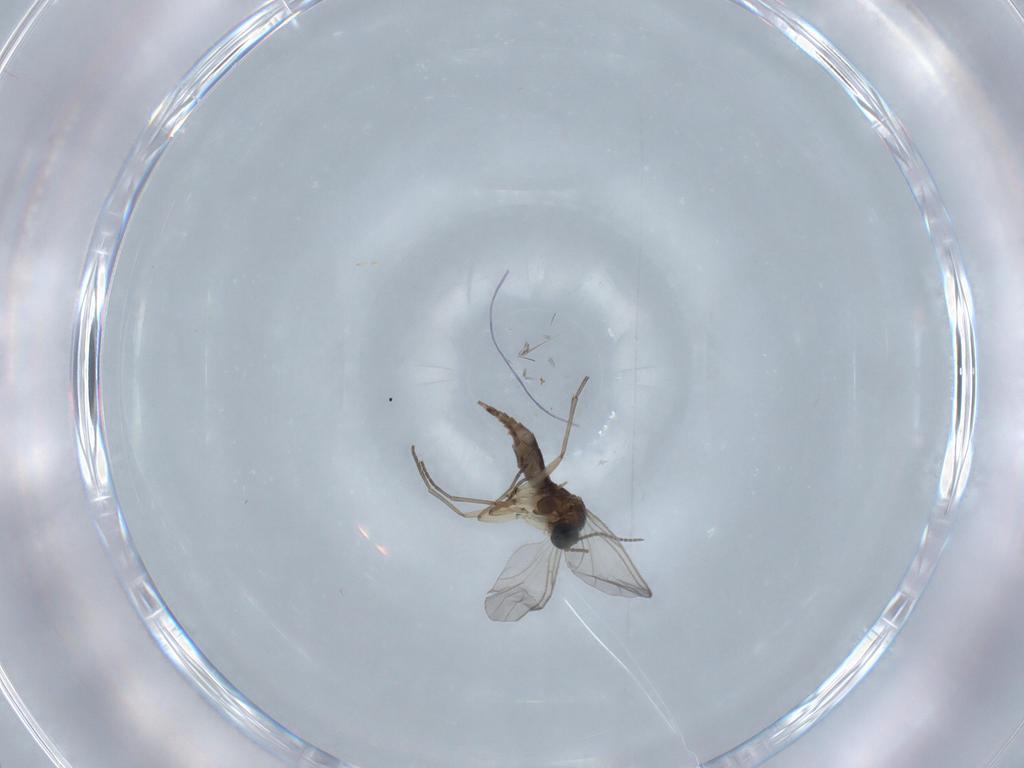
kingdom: Animalia
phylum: Arthropoda
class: Insecta
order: Diptera
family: Sciaridae
